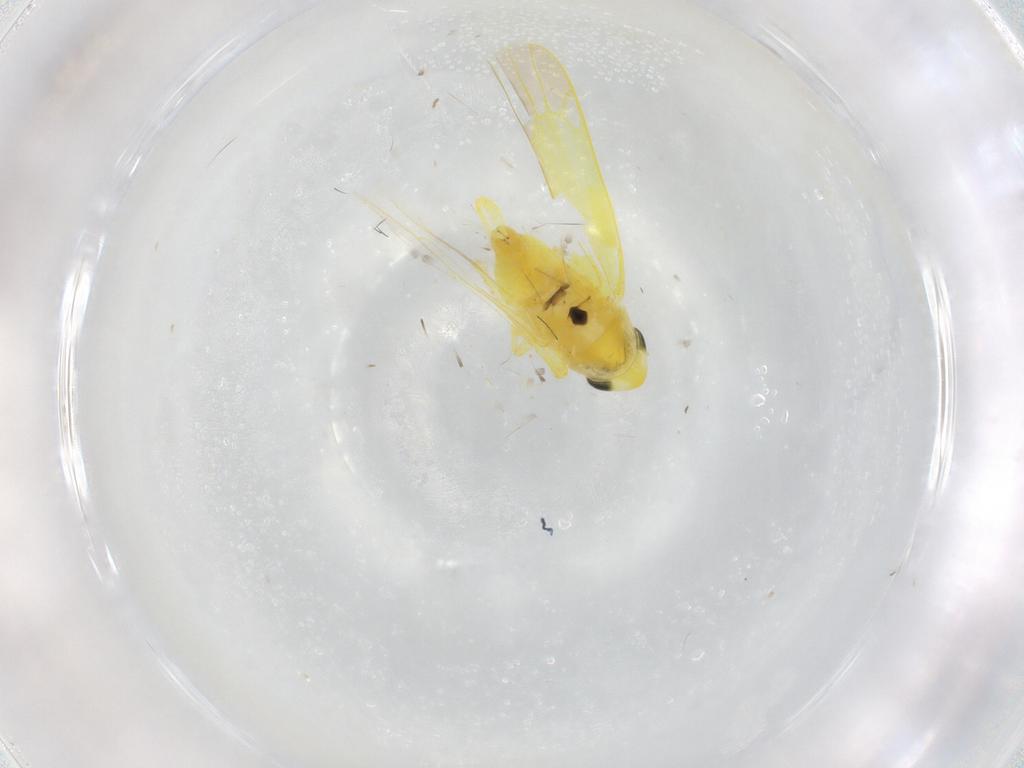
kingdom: Animalia
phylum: Arthropoda
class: Insecta
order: Hemiptera
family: Cicadellidae
